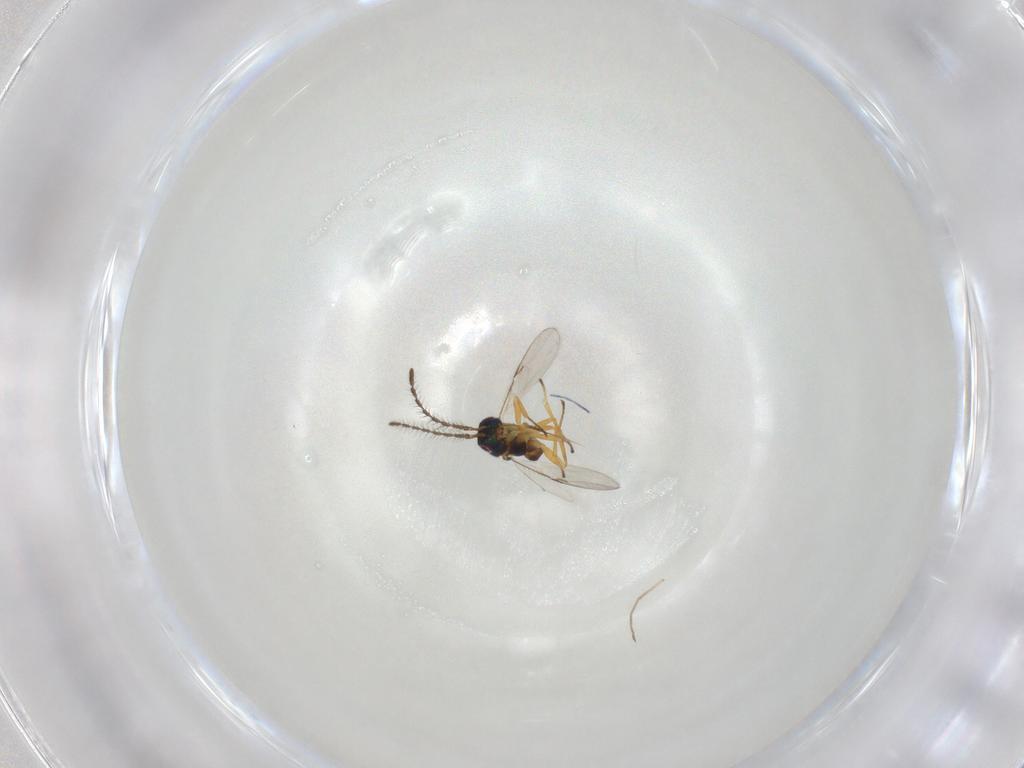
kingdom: Animalia
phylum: Arthropoda
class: Insecta
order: Hymenoptera
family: Encyrtidae
